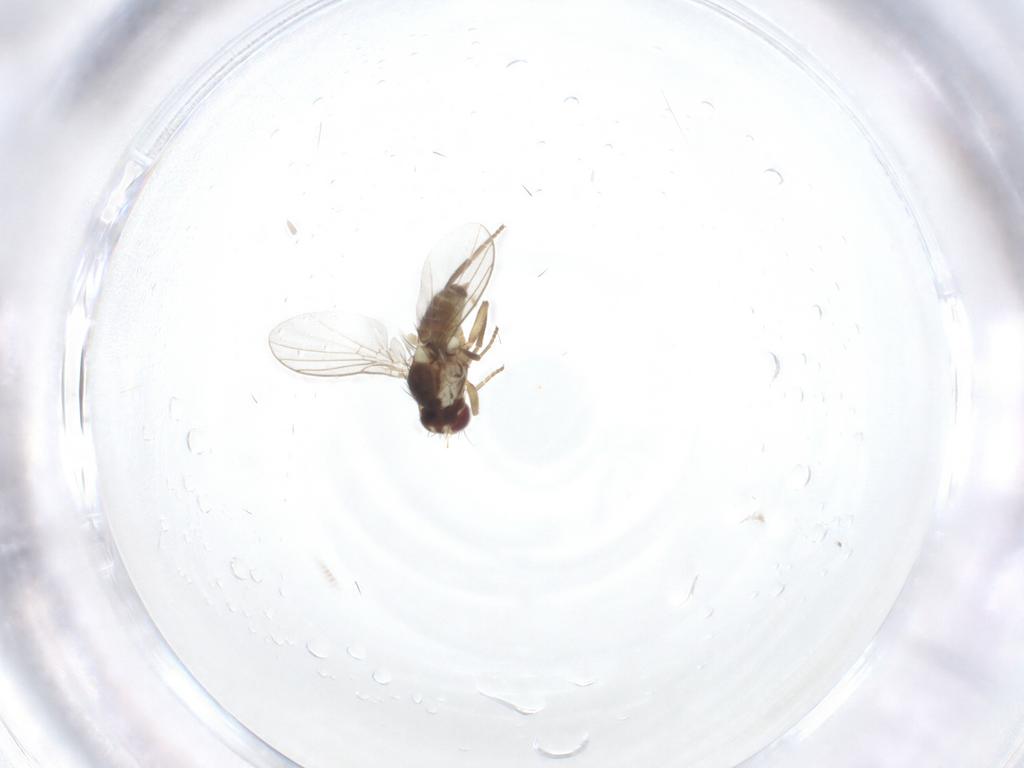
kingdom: Animalia
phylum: Arthropoda
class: Insecta
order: Diptera
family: Agromyzidae
